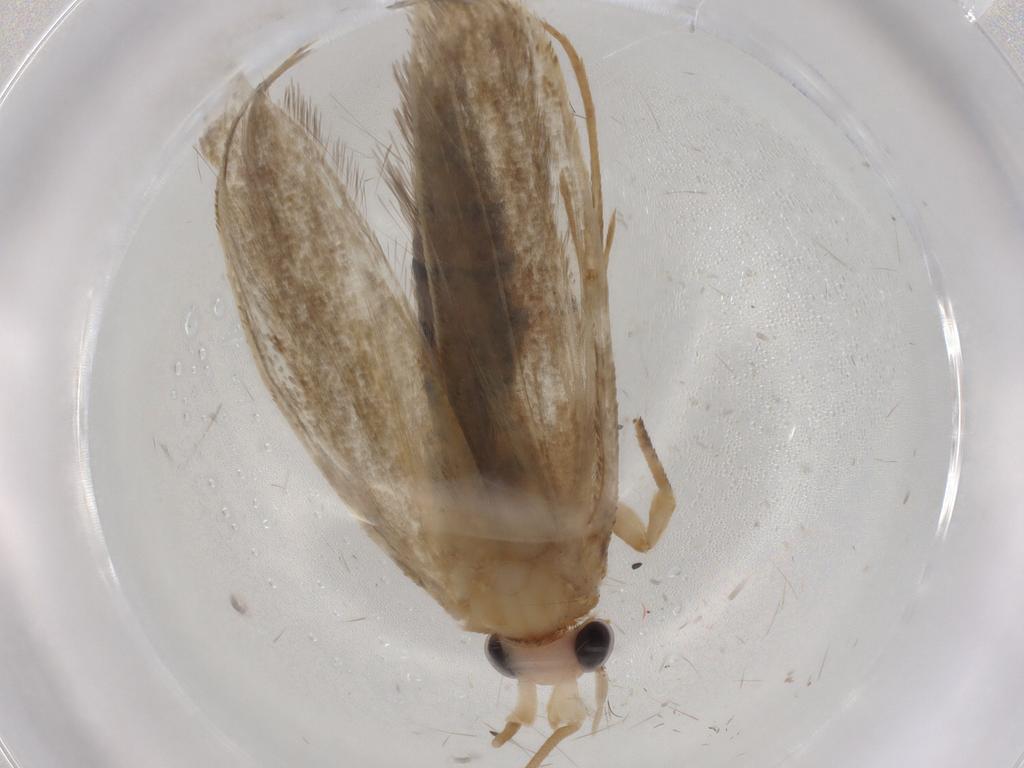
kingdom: Animalia
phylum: Arthropoda
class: Insecta
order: Lepidoptera
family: Crambidae
